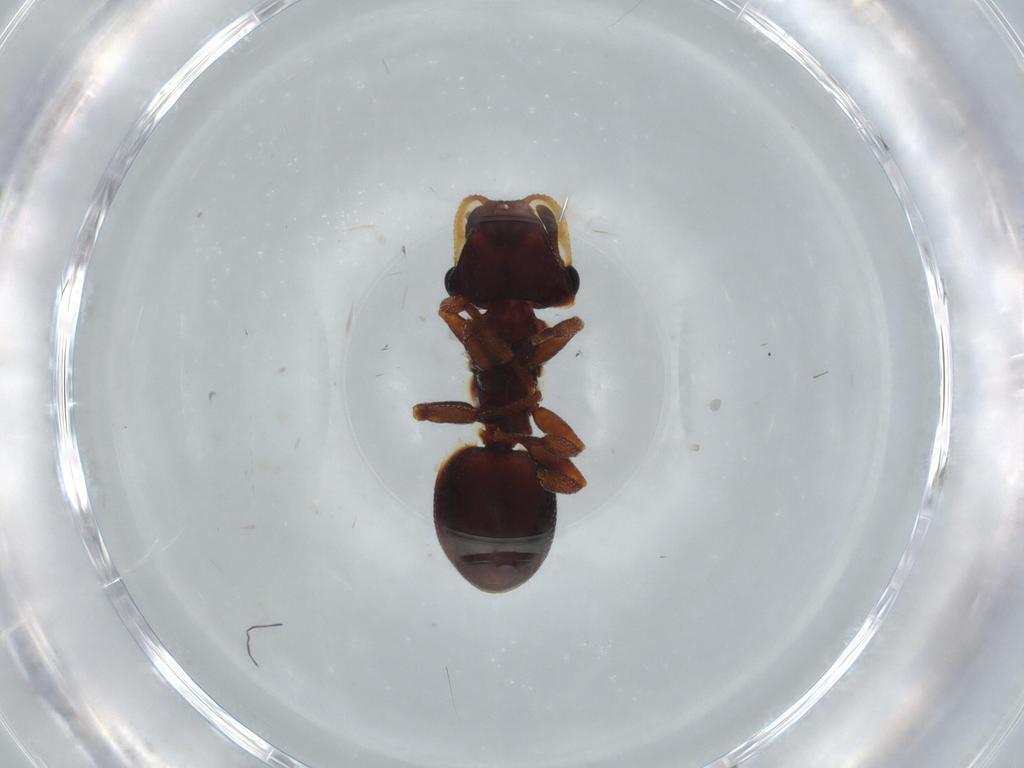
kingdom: Animalia
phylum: Arthropoda
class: Insecta
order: Hymenoptera
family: Formicidae
